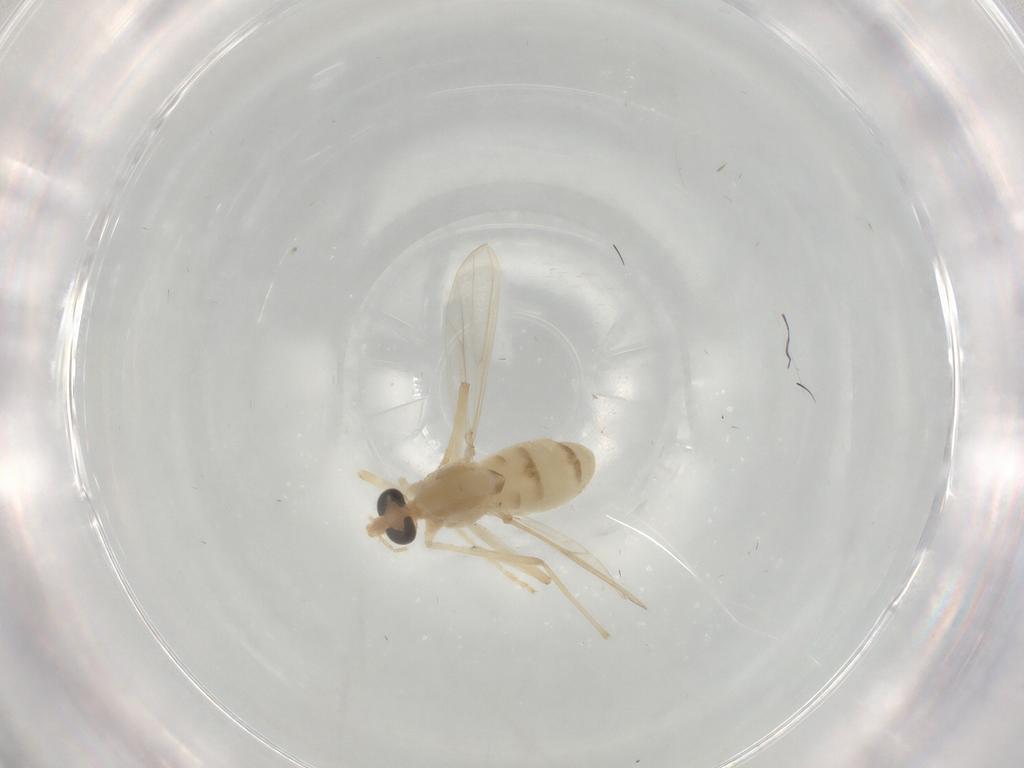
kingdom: Animalia
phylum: Arthropoda
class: Insecta
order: Diptera
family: Chironomidae
